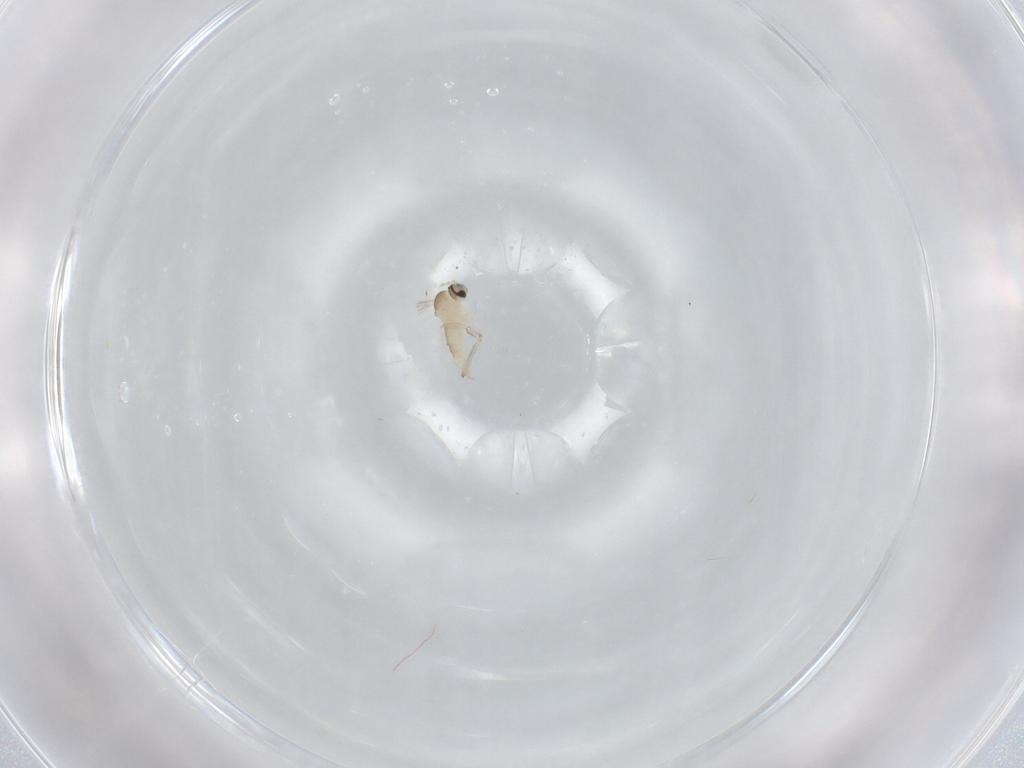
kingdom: Animalia
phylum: Arthropoda
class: Insecta
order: Diptera
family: Cecidomyiidae
